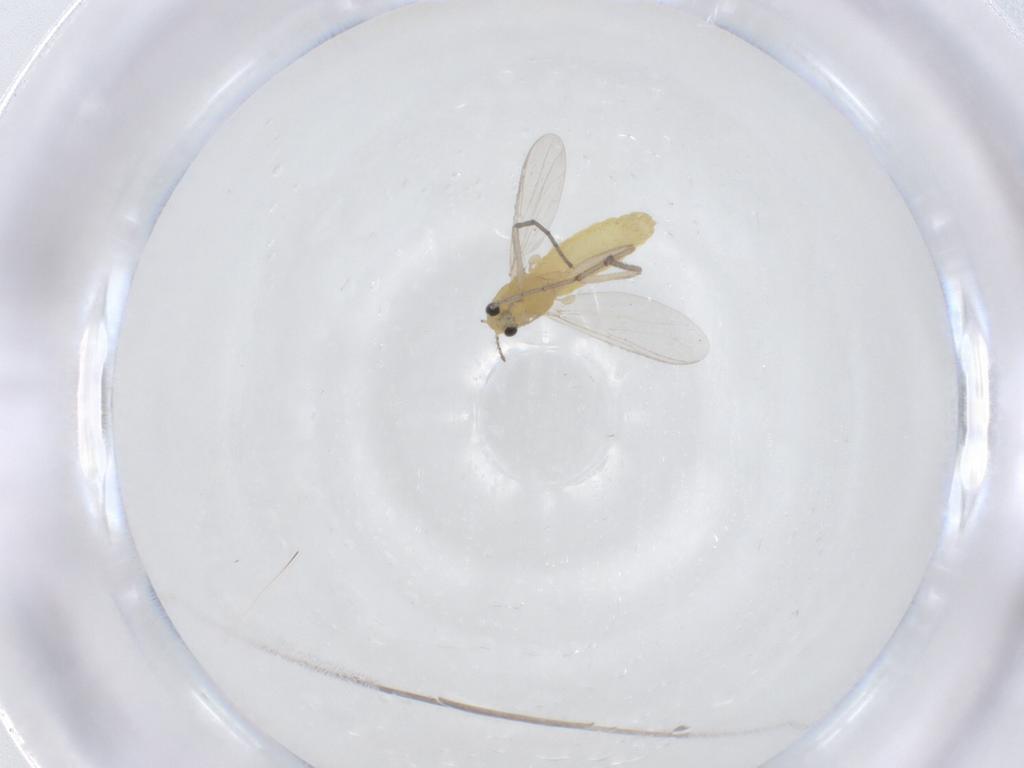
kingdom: Animalia
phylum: Arthropoda
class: Insecta
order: Diptera
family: Chironomidae
